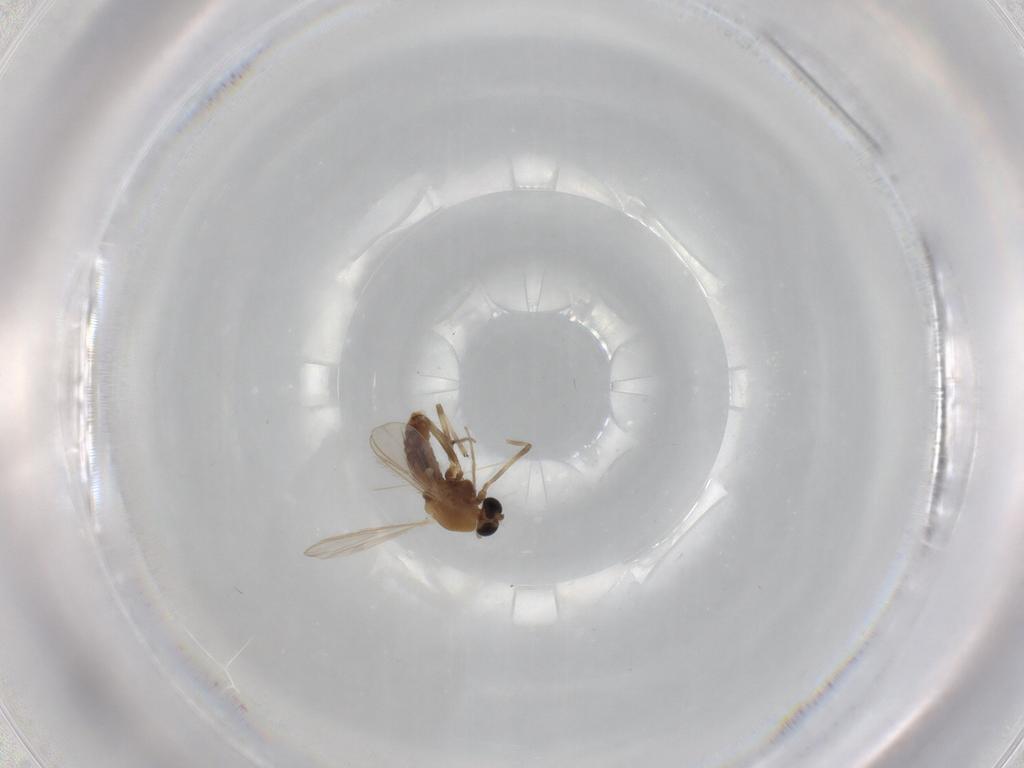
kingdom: Animalia
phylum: Arthropoda
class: Insecta
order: Diptera
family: Chironomidae
